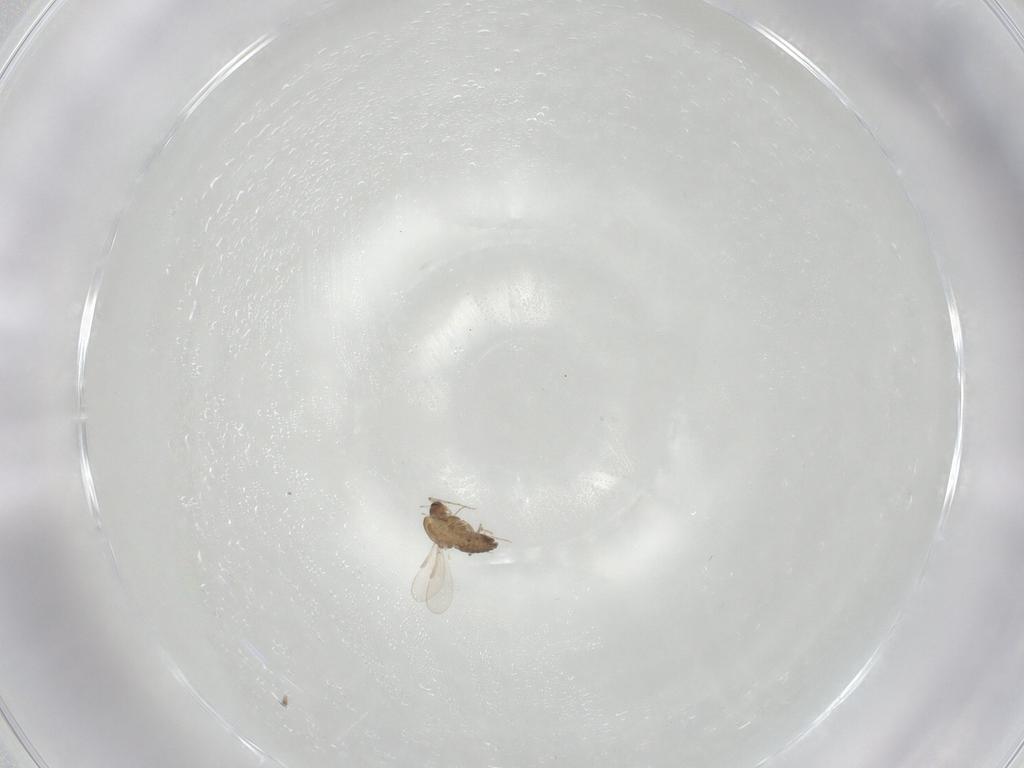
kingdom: Animalia
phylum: Arthropoda
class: Insecta
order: Diptera
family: Chironomidae
